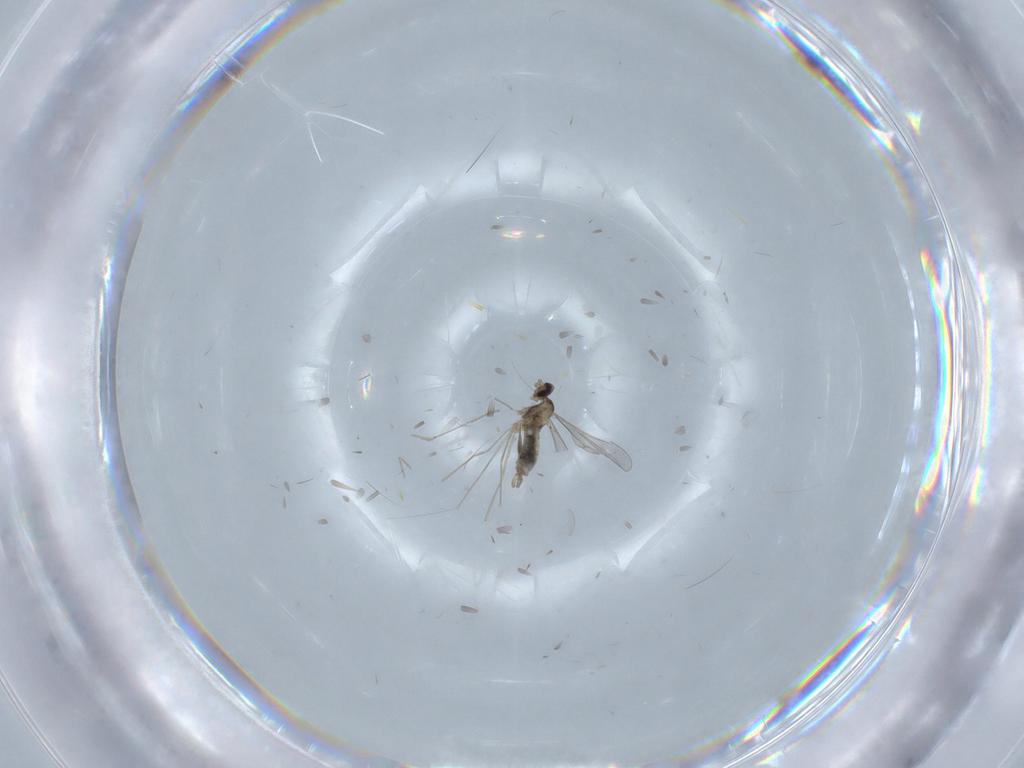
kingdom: Animalia
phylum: Arthropoda
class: Insecta
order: Diptera
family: Cecidomyiidae
